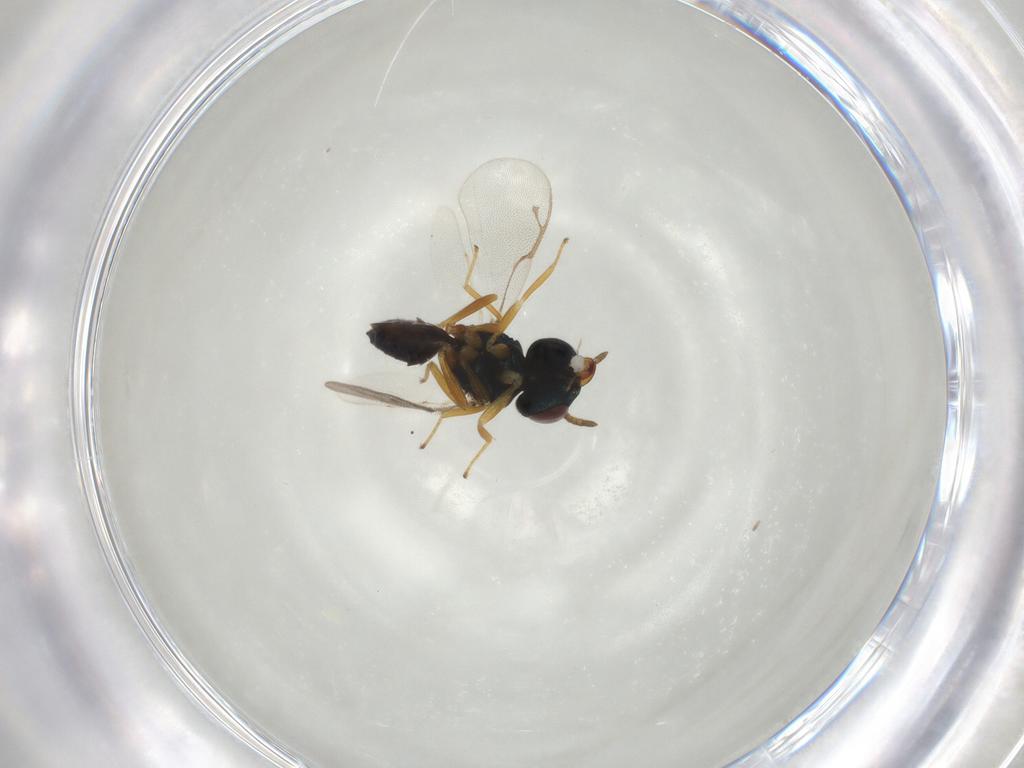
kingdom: Animalia
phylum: Arthropoda
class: Insecta
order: Hymenoptera
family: Pteromalidae
